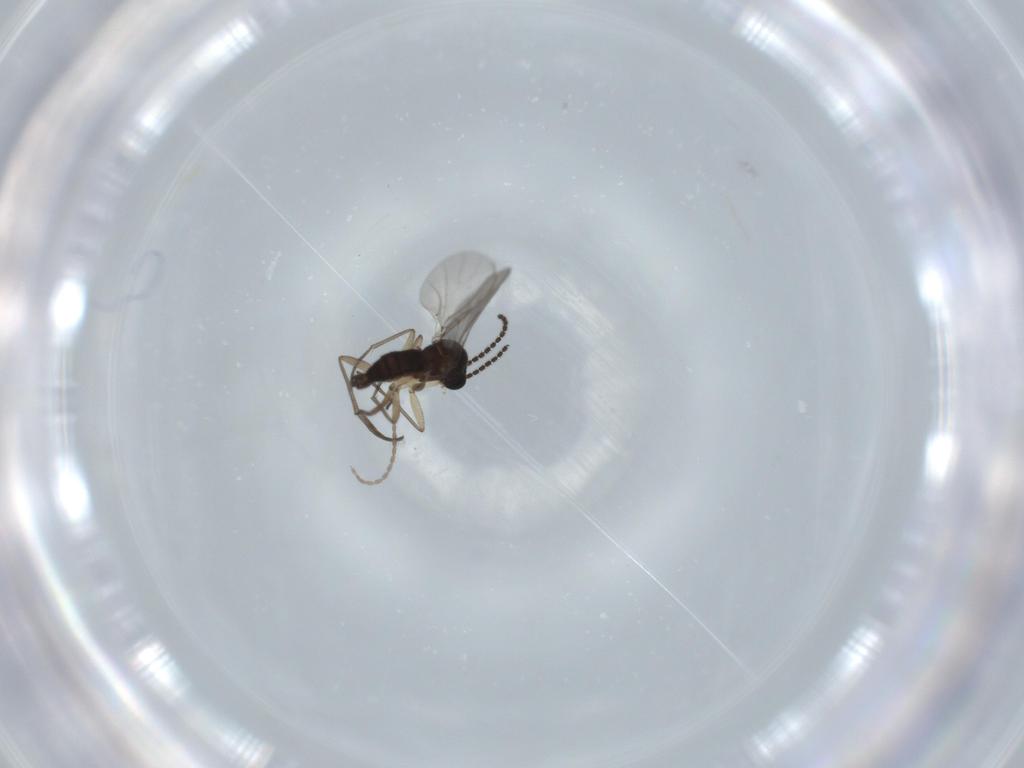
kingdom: Animalia
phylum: Arthropoda
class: Insecta
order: Diptera
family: Sciaridae
